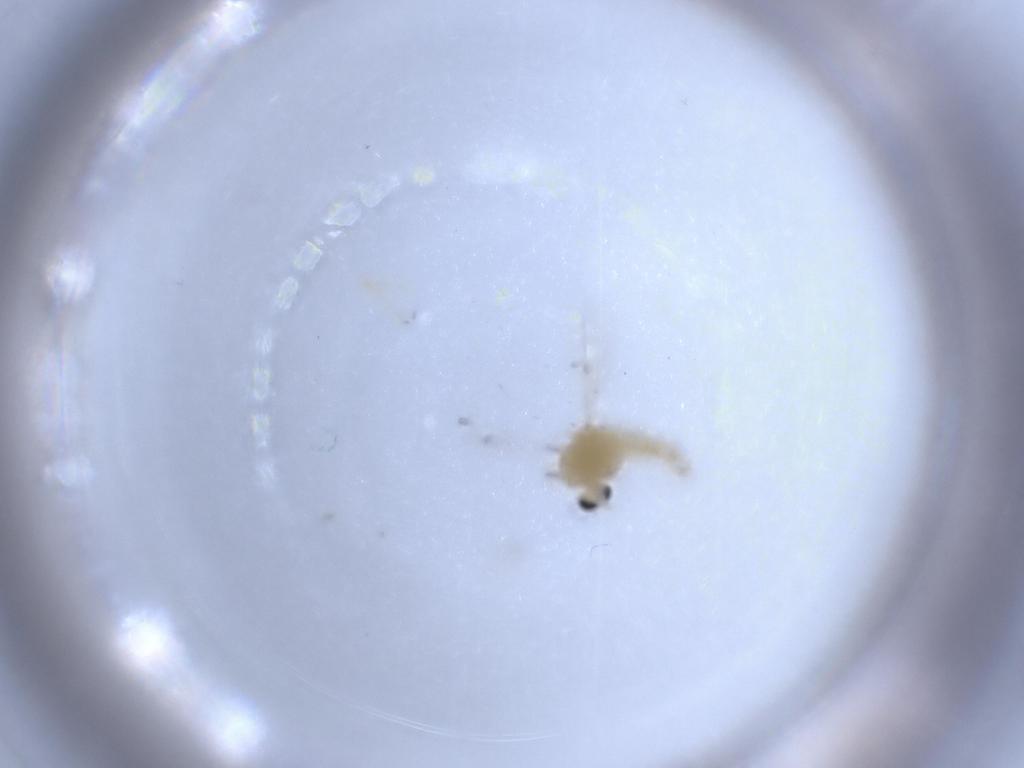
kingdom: Animalia
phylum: Arthropoda
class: Insecta
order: Diptera
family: Chironomidae
